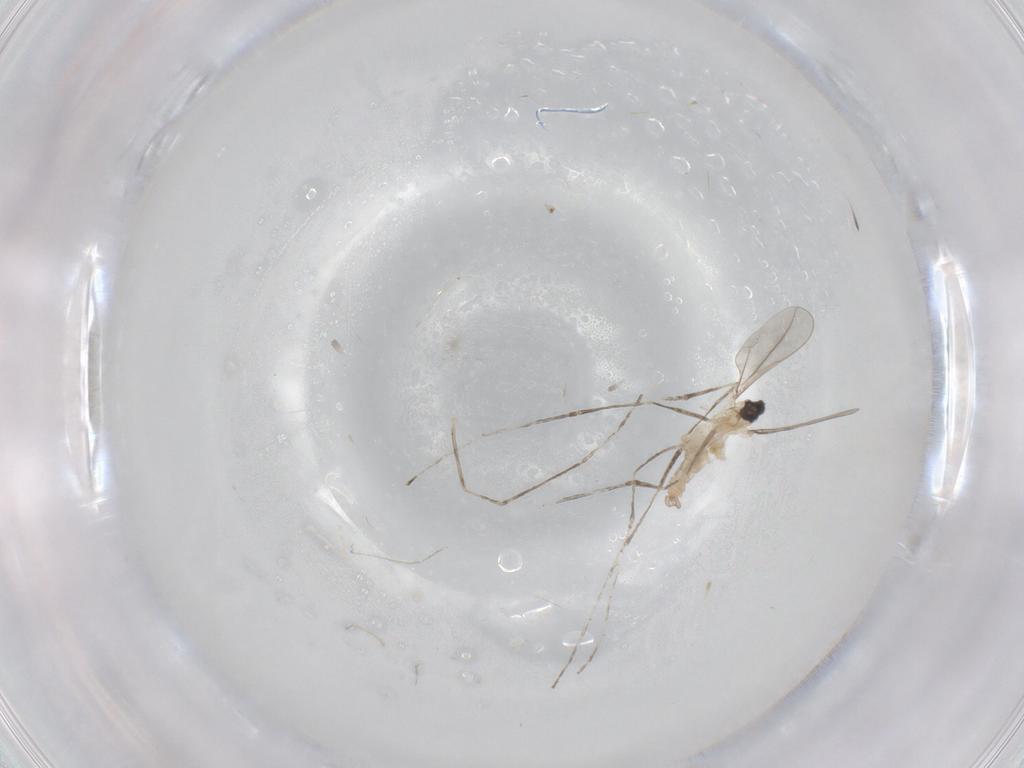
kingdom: Animalia
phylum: Arthropoda
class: Insecta
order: Diptera
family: Cecidomyiidae
